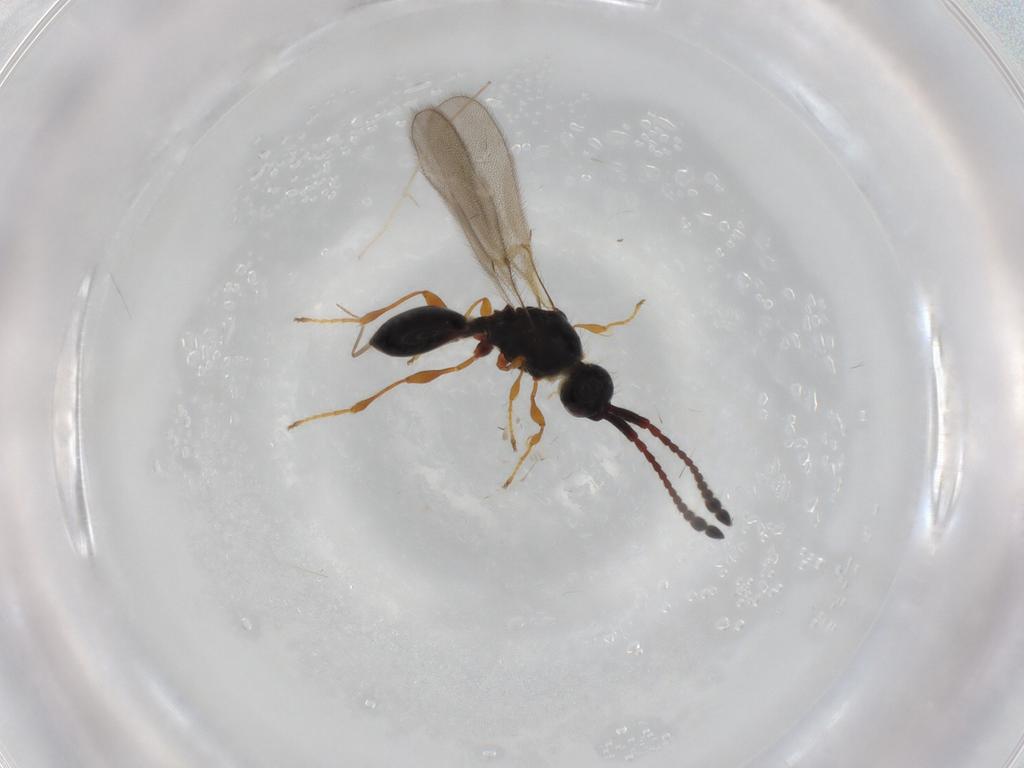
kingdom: Animalia
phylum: Arthropoda
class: Insecta
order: Hymenoptera
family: Diapriidae
